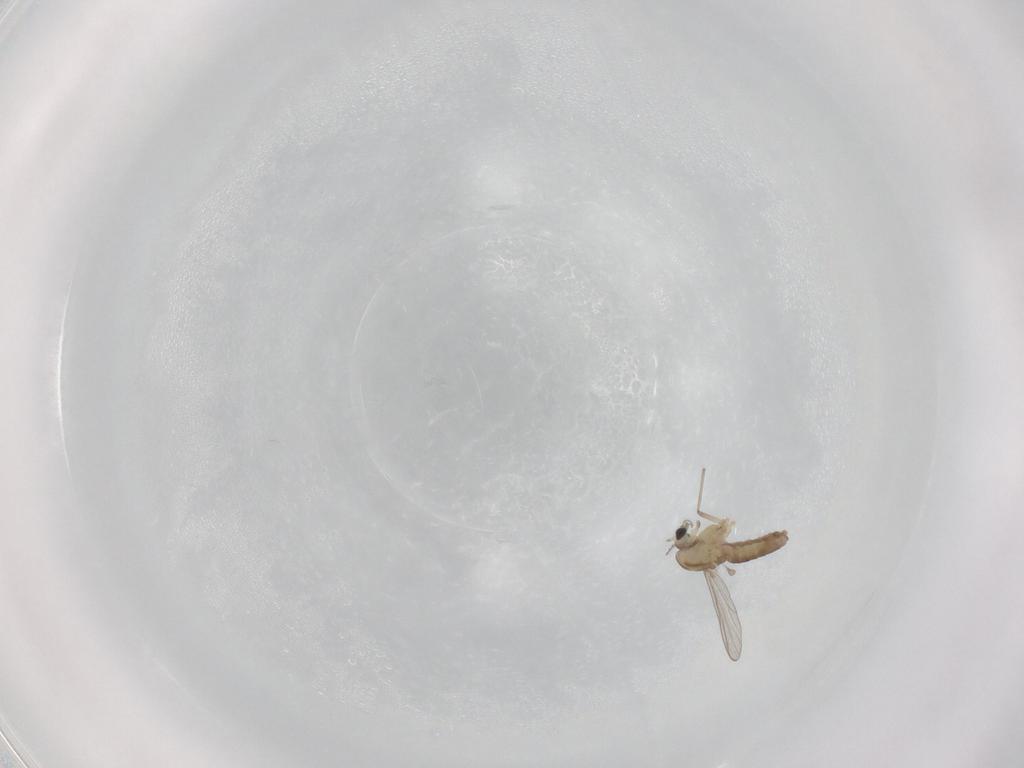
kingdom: Animalia
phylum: Arthropoda
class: Insecta
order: Diptera
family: Chironomidae
